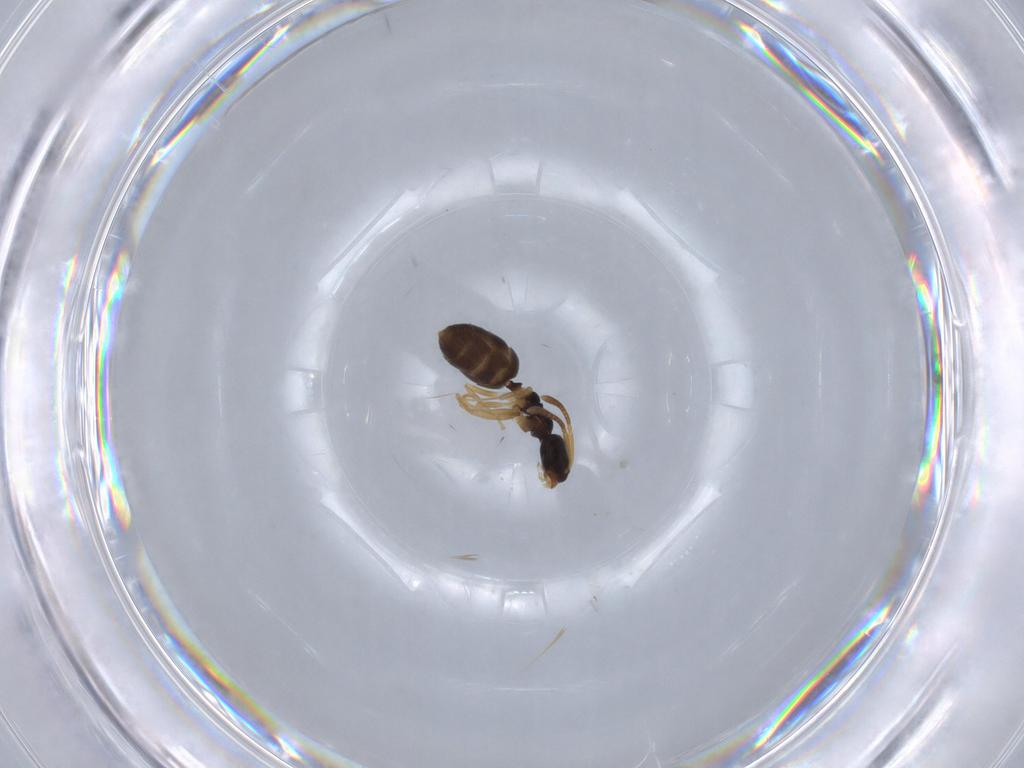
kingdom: Animalia
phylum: Arthropoda
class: Insecta
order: Hymenoptera
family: Formicidae
